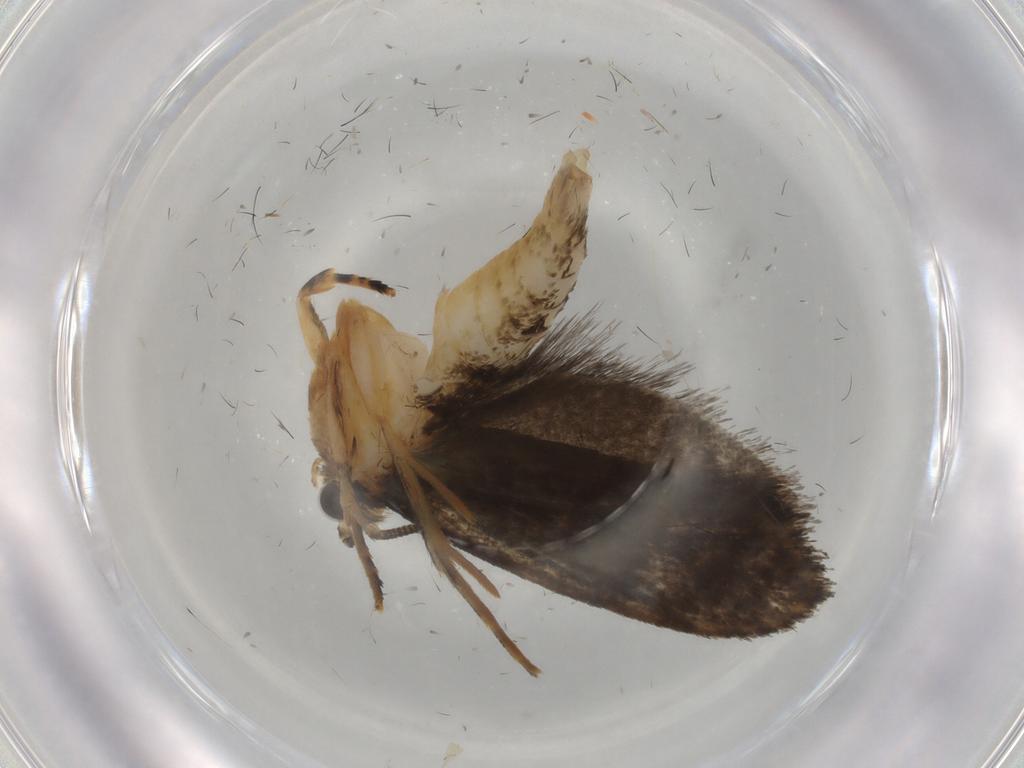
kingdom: Animalia
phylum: Arthropoda
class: Insecta
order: Lepidoptera
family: Tineidae
